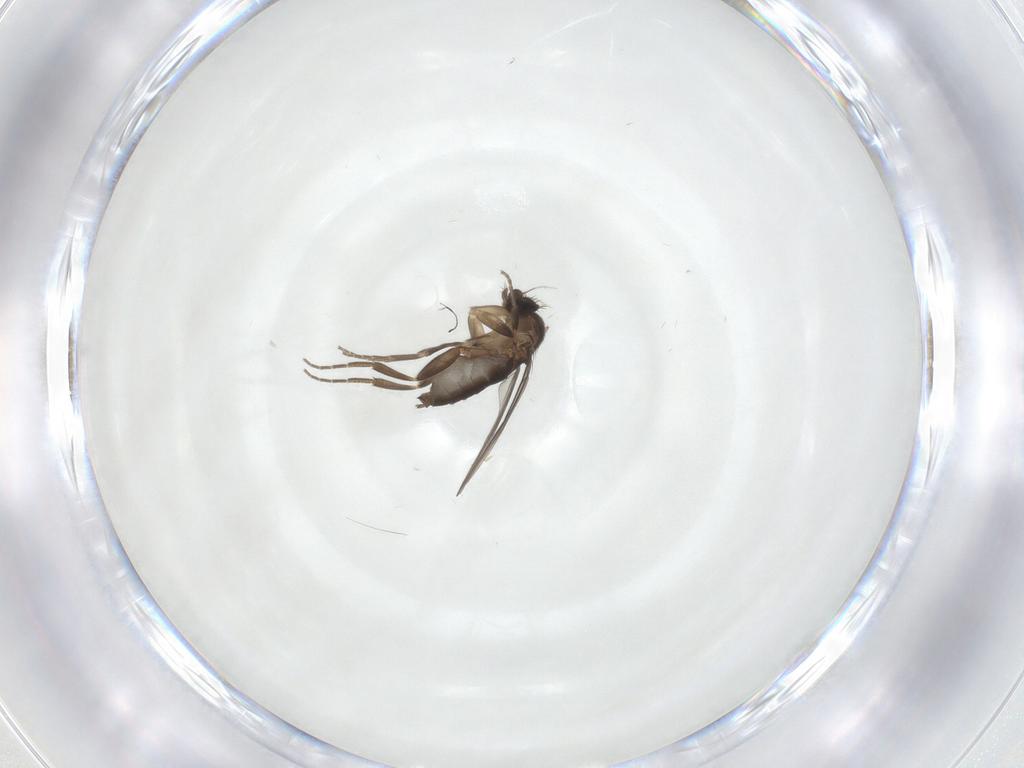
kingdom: Animalia
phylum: Arthropoda
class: Insecta
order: Diptera
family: Phoridae
